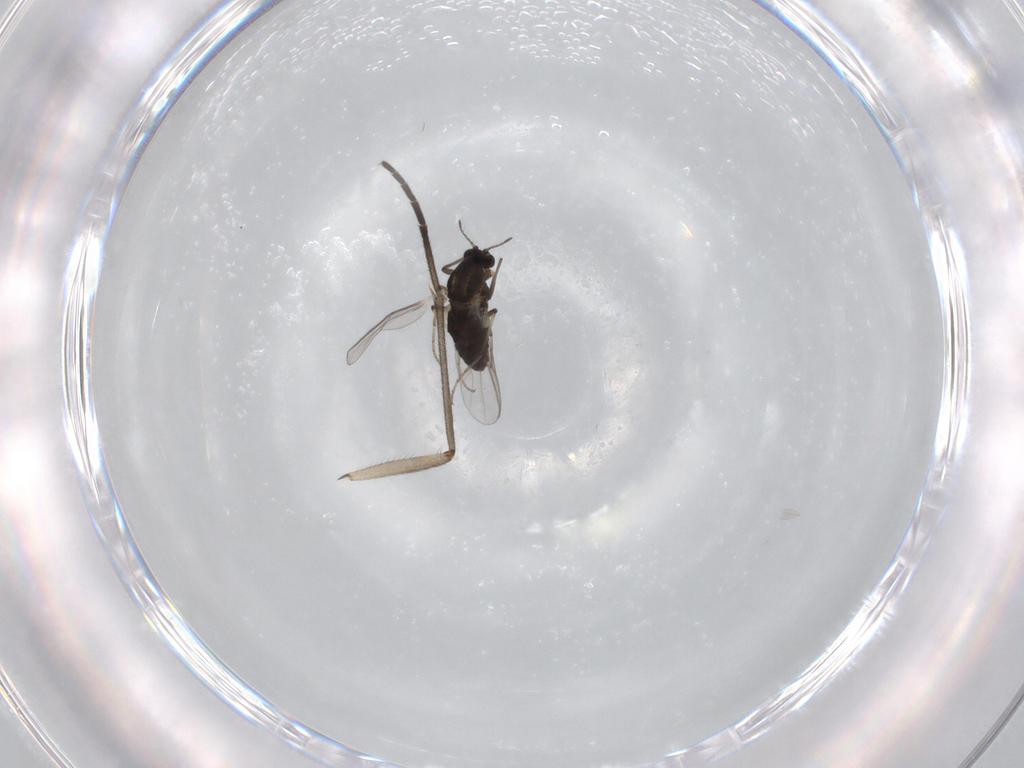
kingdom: Animalia
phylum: Arthropoda
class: Insecta
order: Diptera
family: Chironomidae
